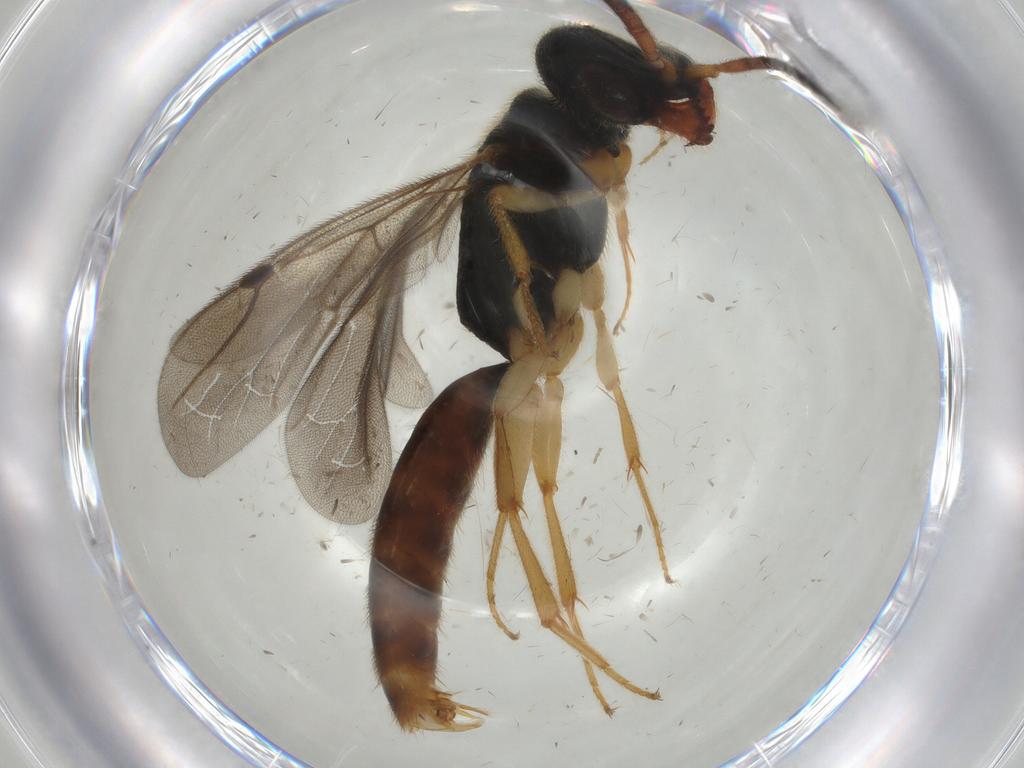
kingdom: Animalia
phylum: Arthropoda
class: Insecta
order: Hymenoptera
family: Bethylidae
